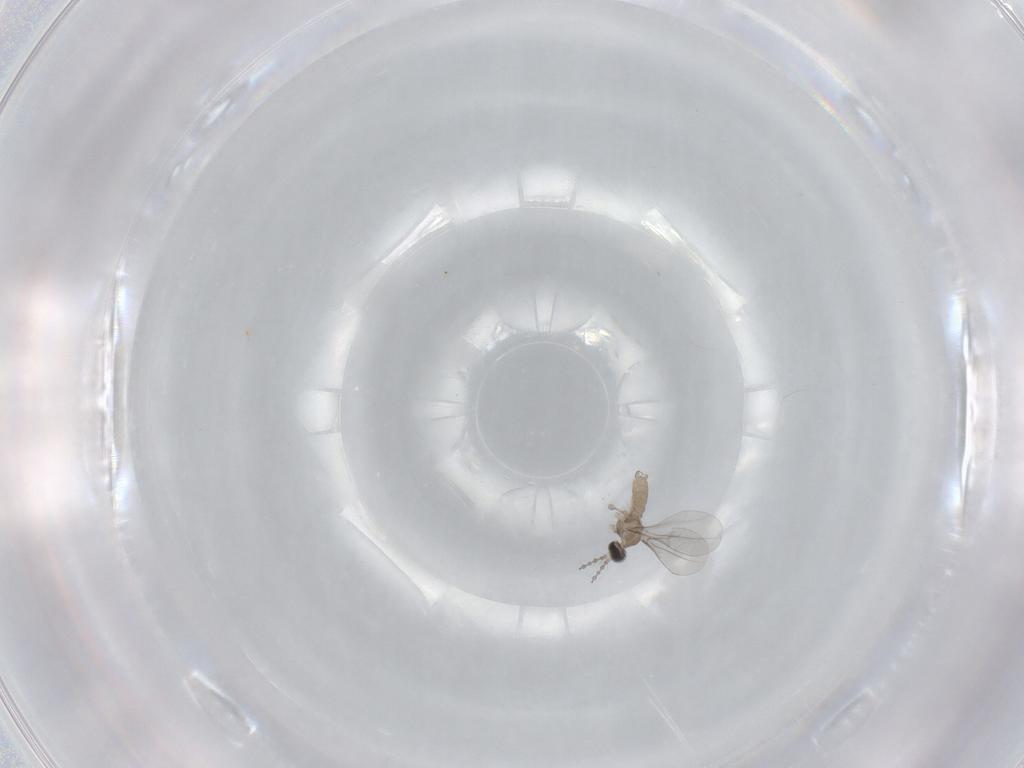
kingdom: Animalia
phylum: Arthropoda
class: Insecta
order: Diptera
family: Cecidomyiidae
